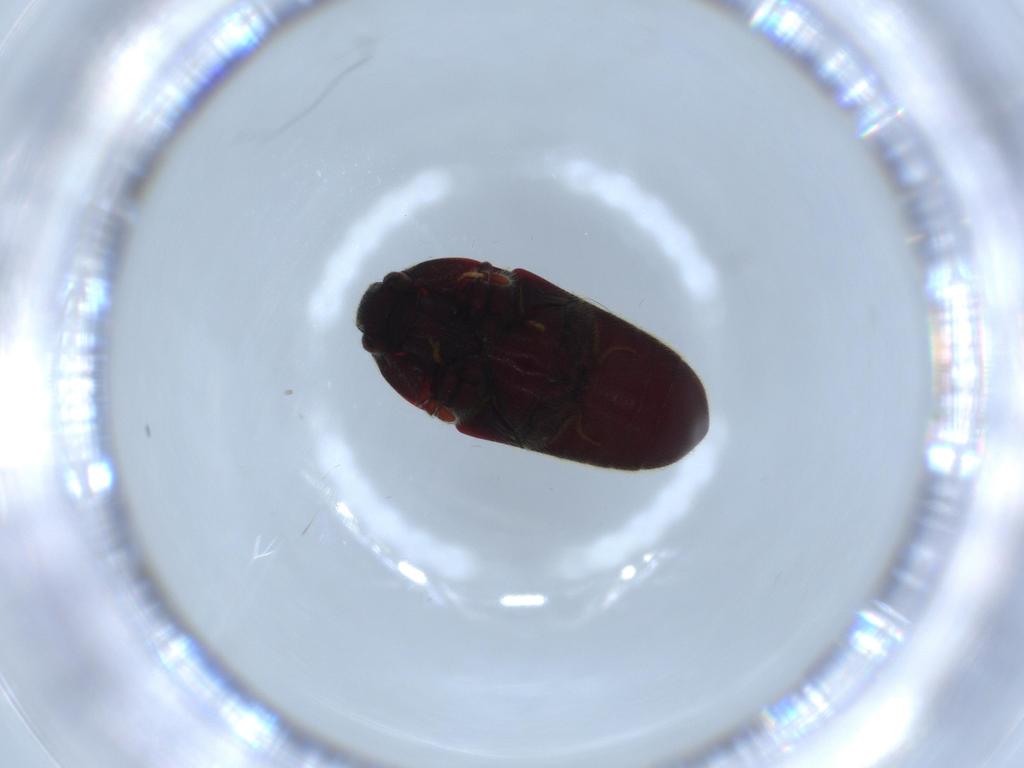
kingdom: Animalia
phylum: Arthropoda
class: Insecta
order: Coleoptera
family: Throscidae
